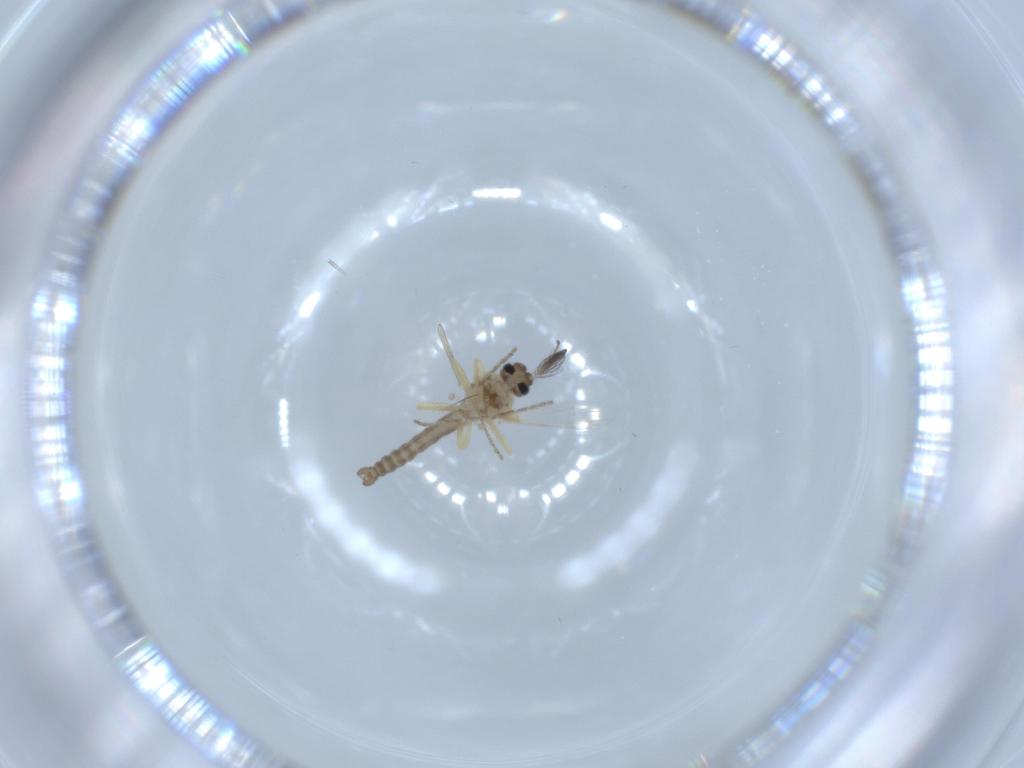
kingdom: Animalia
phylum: Arthropoda
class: Insecta
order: Diptera
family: Ceratopogonidae
